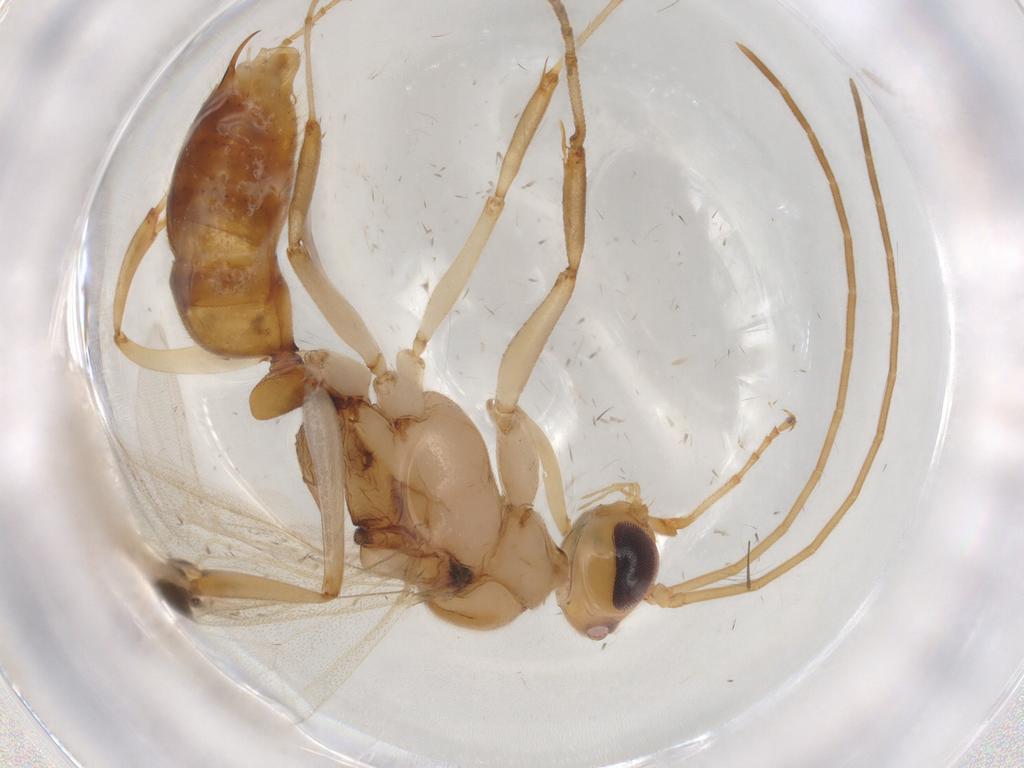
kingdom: Animalia
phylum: Arthropoda
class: Insecta
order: Hymenoptera
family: Formicidae
